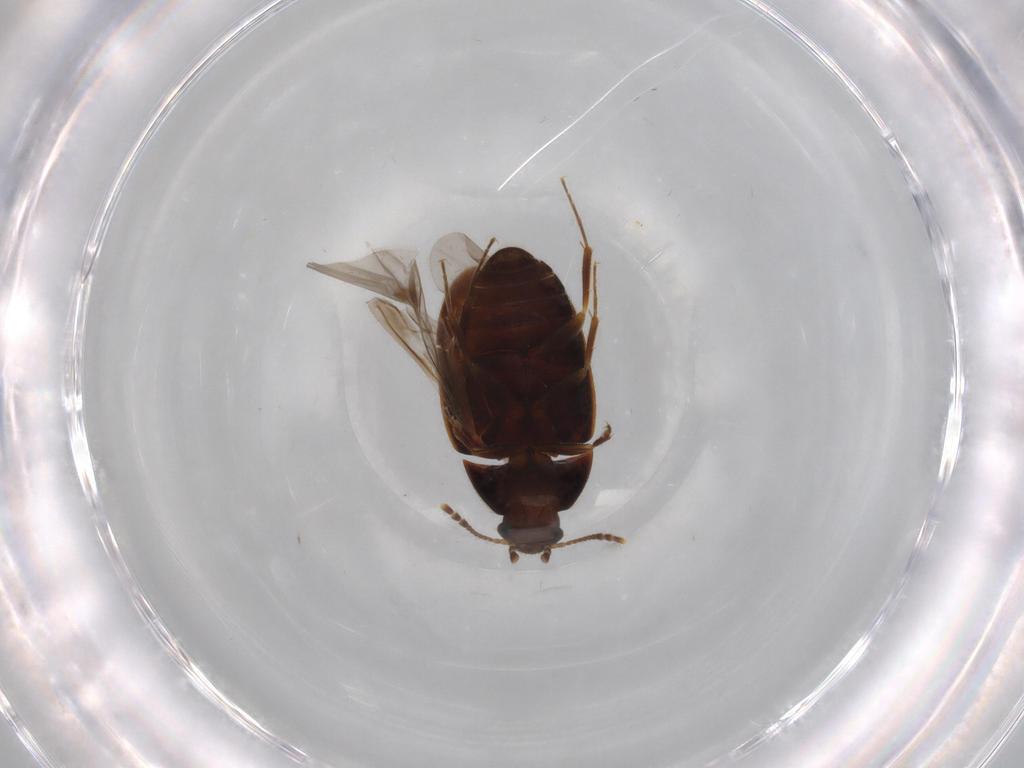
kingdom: Animalia
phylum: Arthropoda
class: Insecta
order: Coleoptera
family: Mycetophagidae
